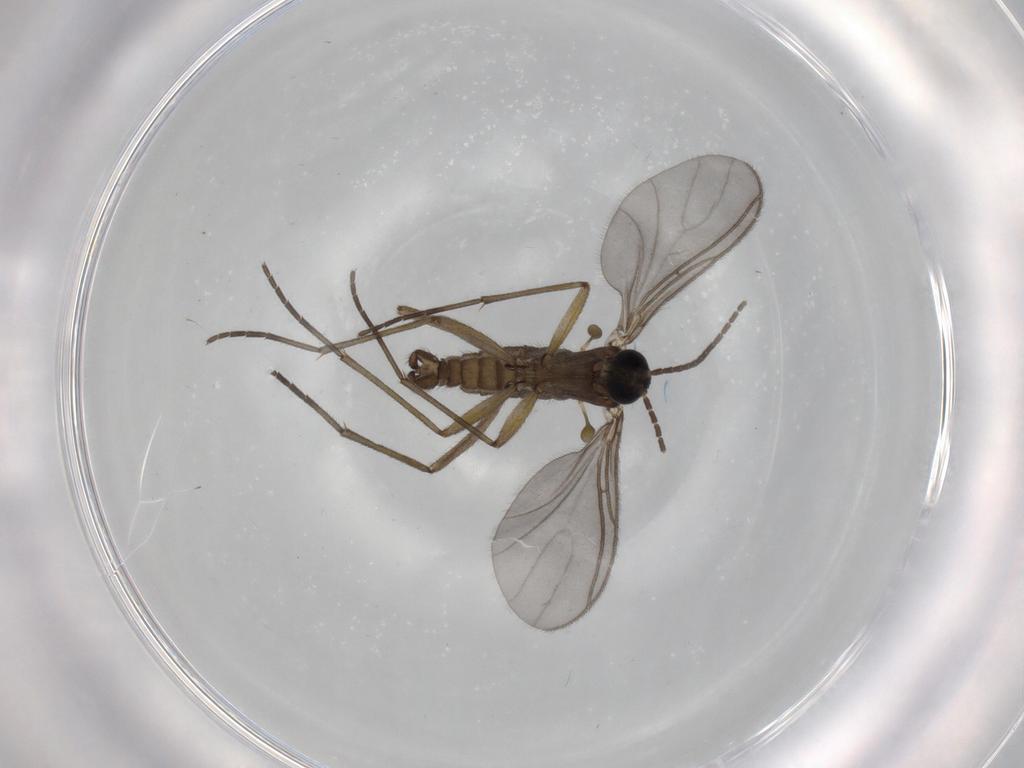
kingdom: Animalia
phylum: Arthropoda
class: Insecta
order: Diptera
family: Sciaridae
